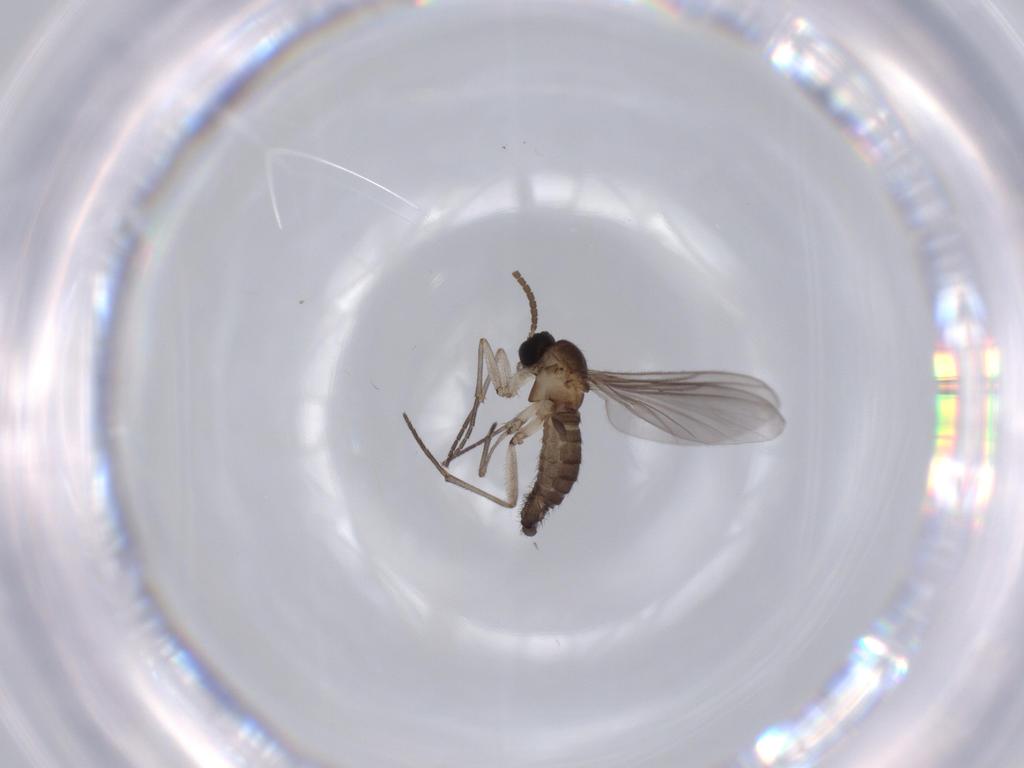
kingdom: Animalia
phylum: Arthropoda
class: Insecta
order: Diptera
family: Sciaridae
